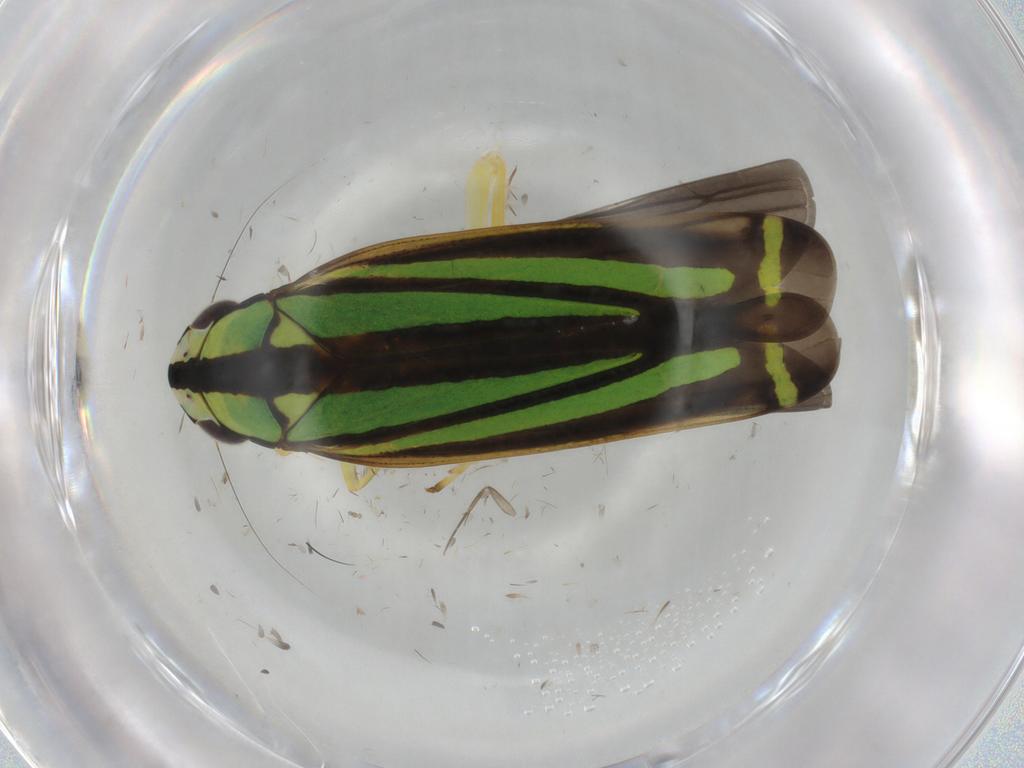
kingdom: Animalia
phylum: Arthropoda
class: Insecta
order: Hemiptera
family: Cicadellidae
